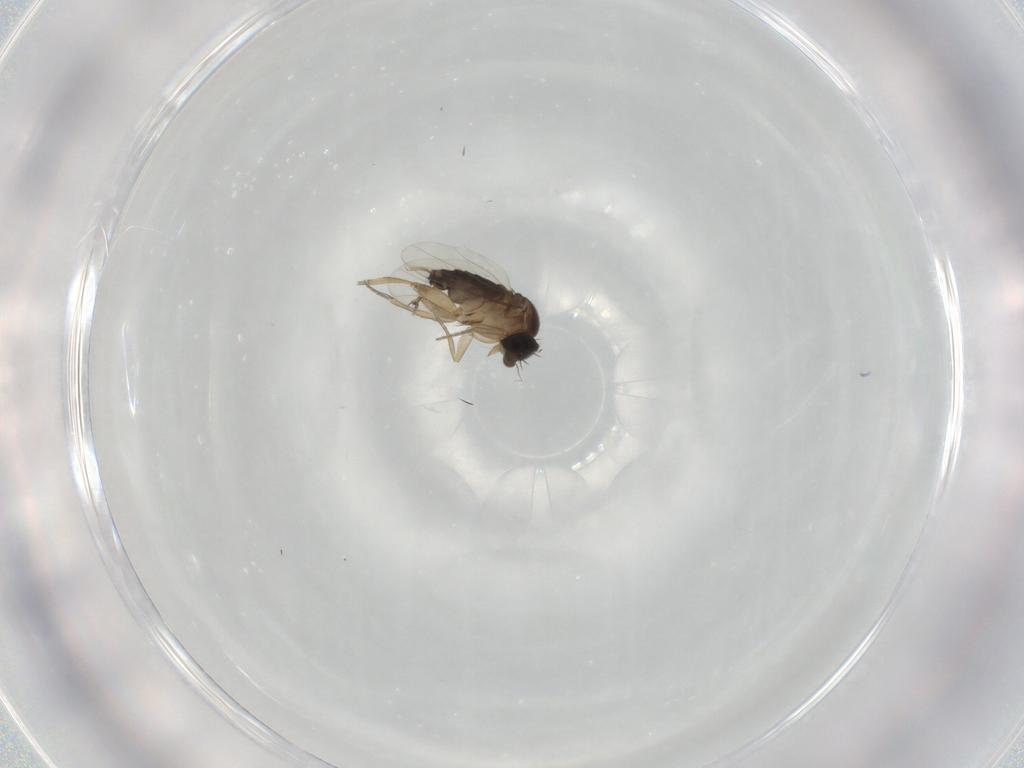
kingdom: Animalia
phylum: Arthropoda
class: Insecta
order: Diptera
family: Phoridae
